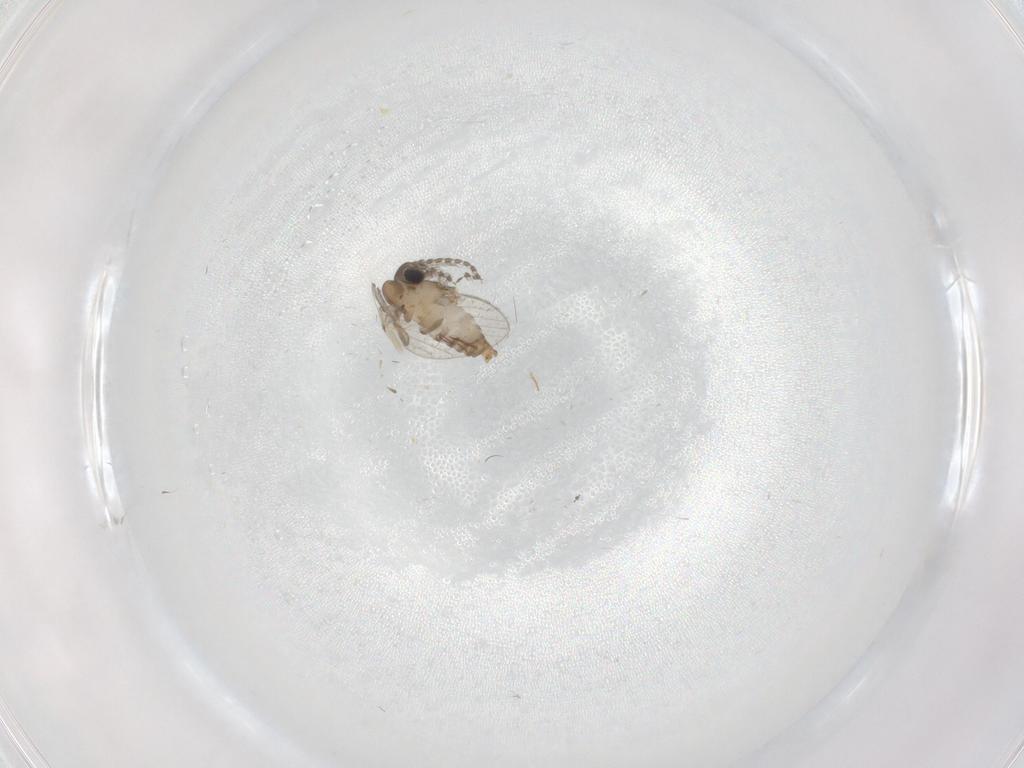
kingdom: Animalia
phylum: Arthropoda
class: Insecta
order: Diptera
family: Psychodidae
